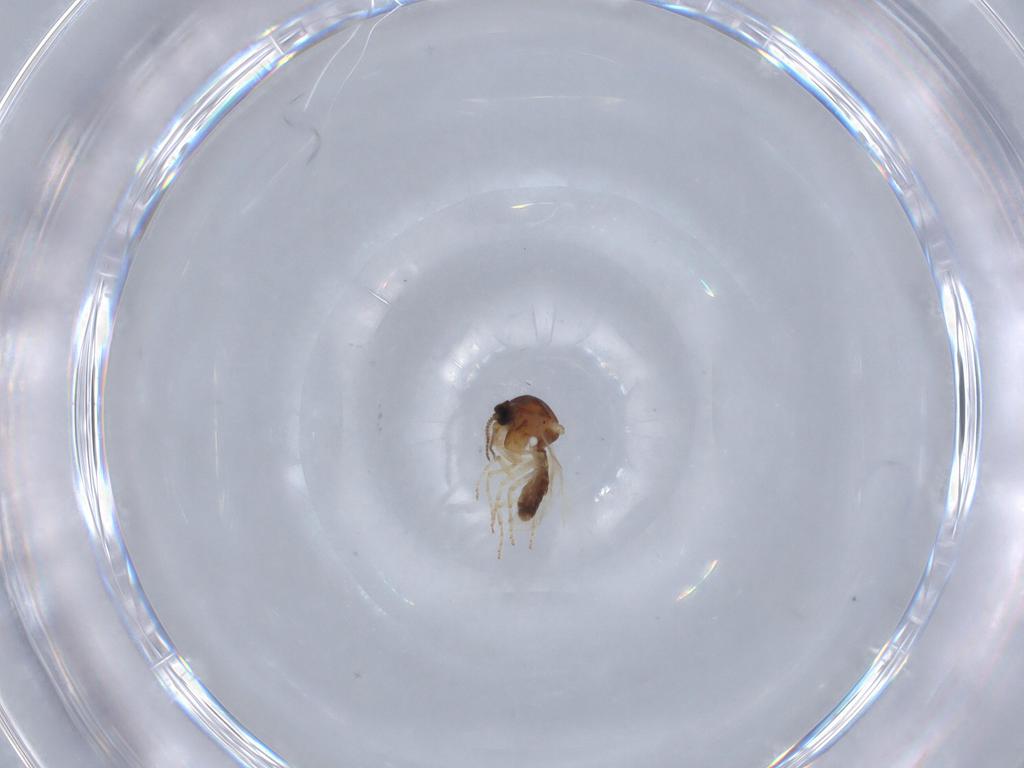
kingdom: Animalia
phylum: Arthropoda
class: Insecta
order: Diptera
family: Ceratopogonidae
